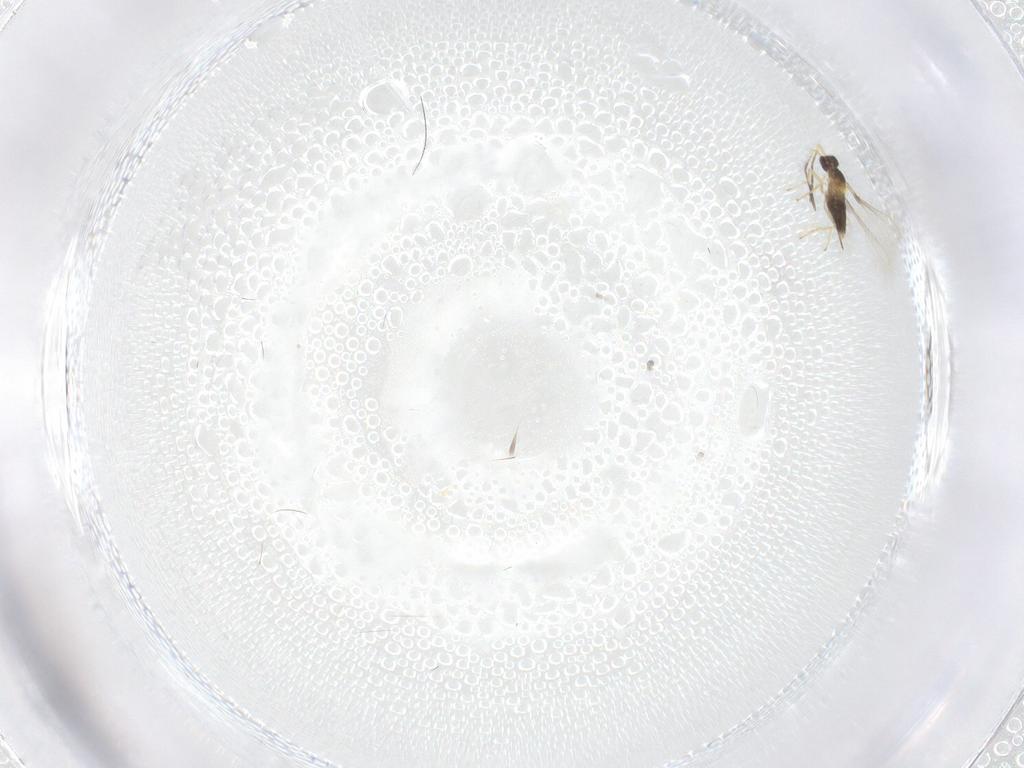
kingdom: Animalia
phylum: Arthropoda
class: Insecta
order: Hymenoptera
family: Mymaridae
